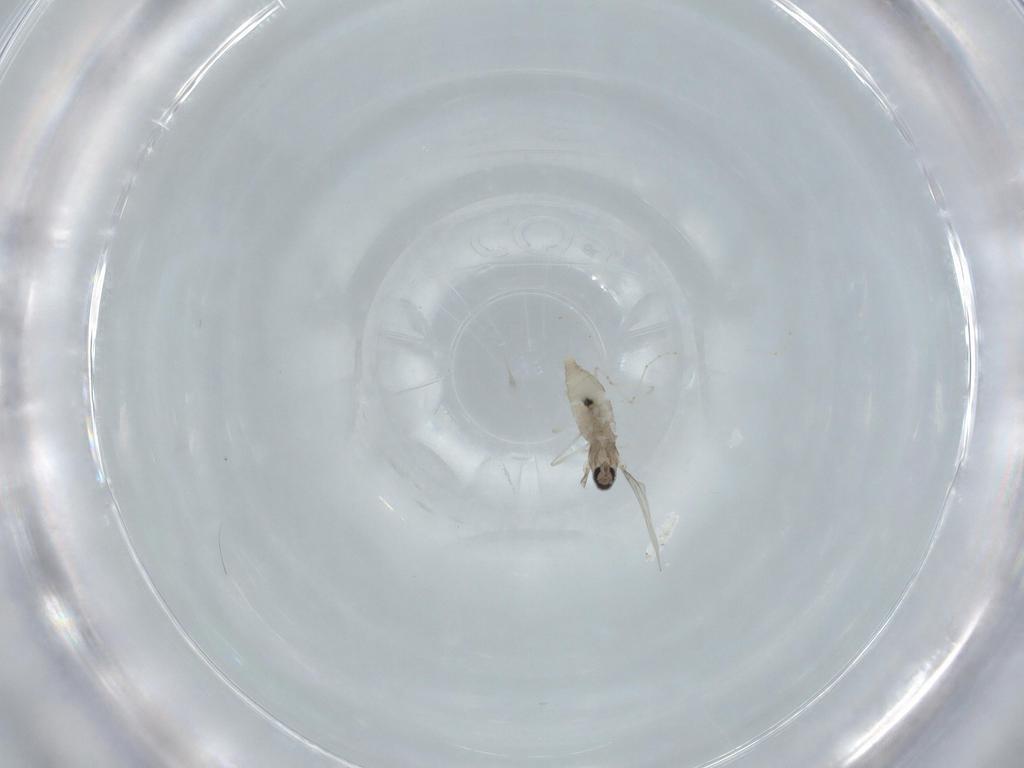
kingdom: Animalia
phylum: Arthropoda
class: Insecta
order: Diptera
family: Cecidomyiidae
